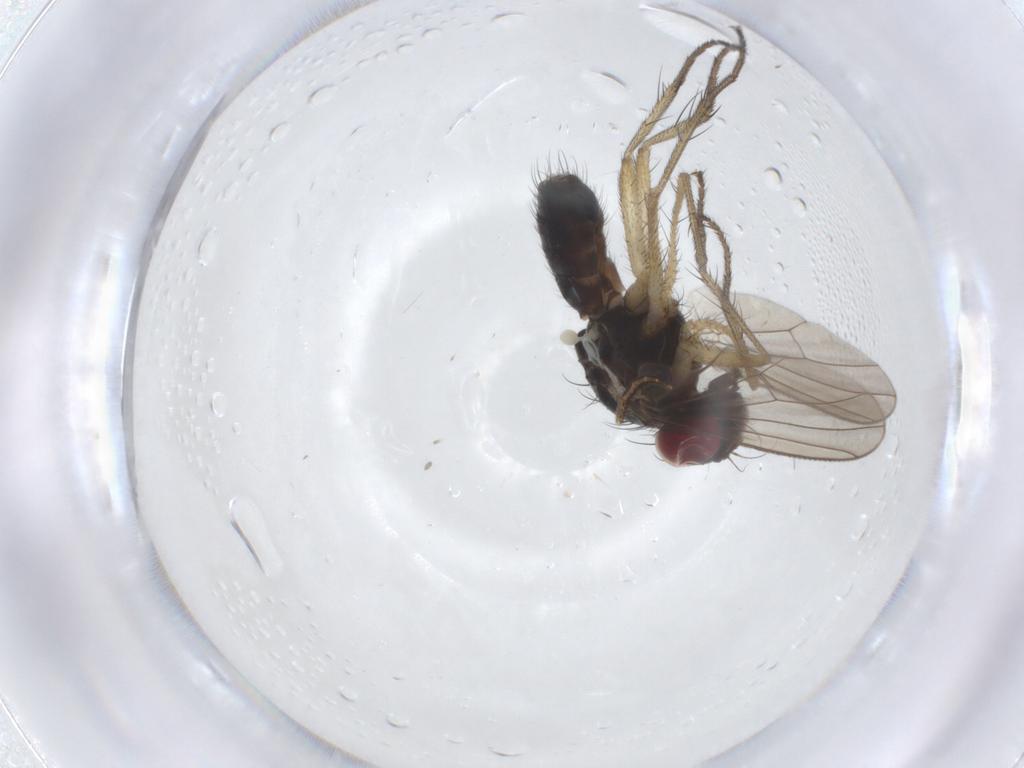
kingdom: Animalia
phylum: Arthropoda
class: Insecta
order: Diptera
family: Muscidae
